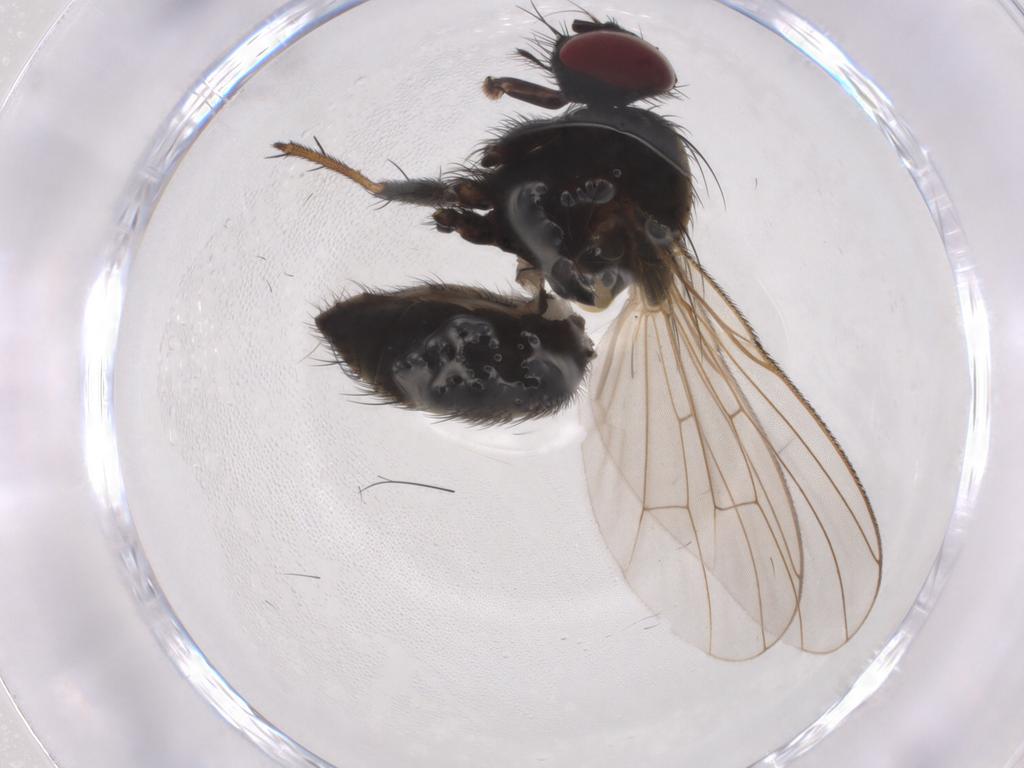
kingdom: Animalia
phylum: Arthropoda
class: Insecta
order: Diptera
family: Muscidae
